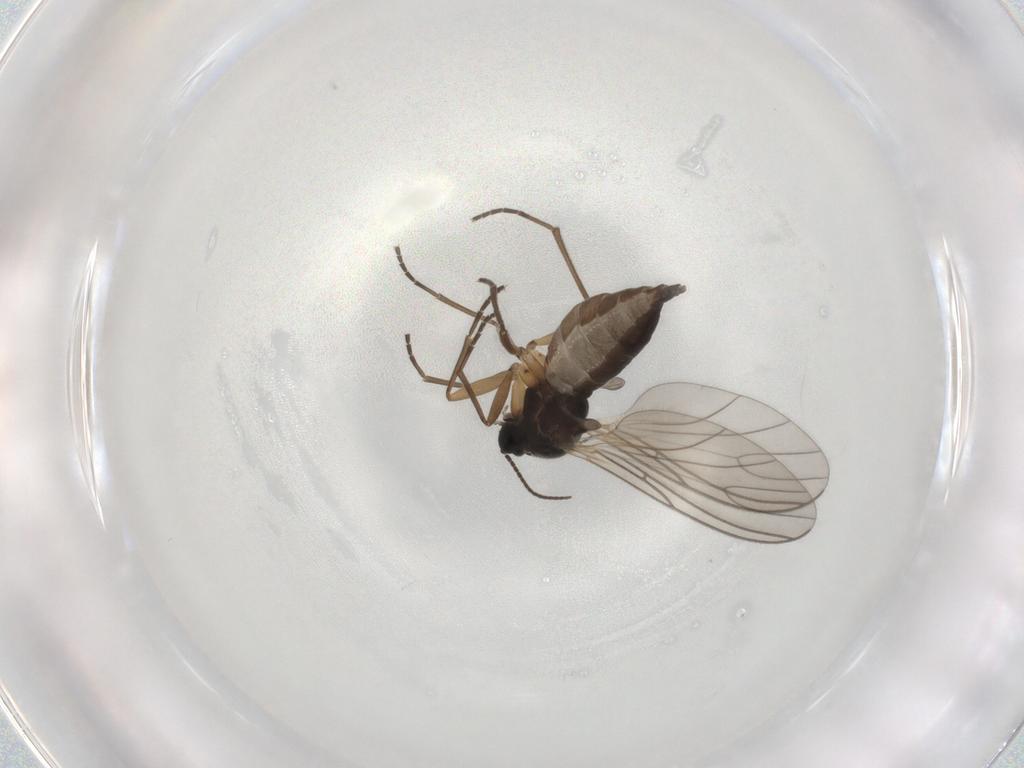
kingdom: Animalia
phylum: Arthropoda
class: Insecta
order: Diptera
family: Sciaridae
